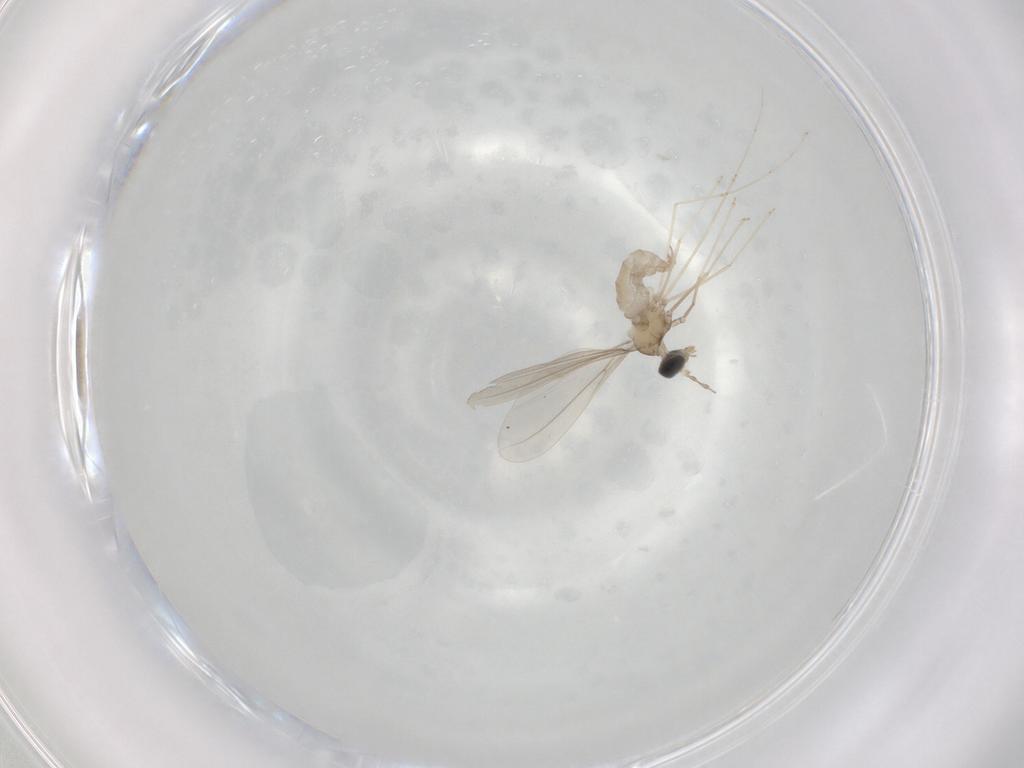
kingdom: Animalia
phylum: Arthropoda
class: Insecta
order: Diptera
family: Cecidomyiidae
